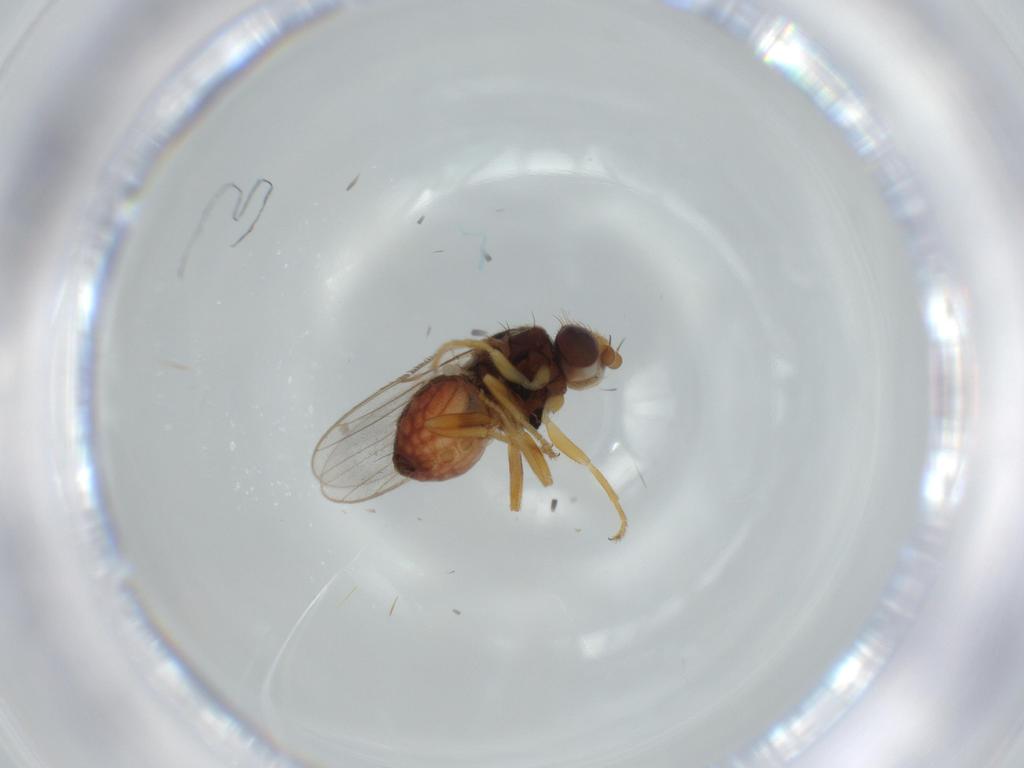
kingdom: Animalia
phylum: Arthropoda
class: Insecta
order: Diptera
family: Chloropidae
